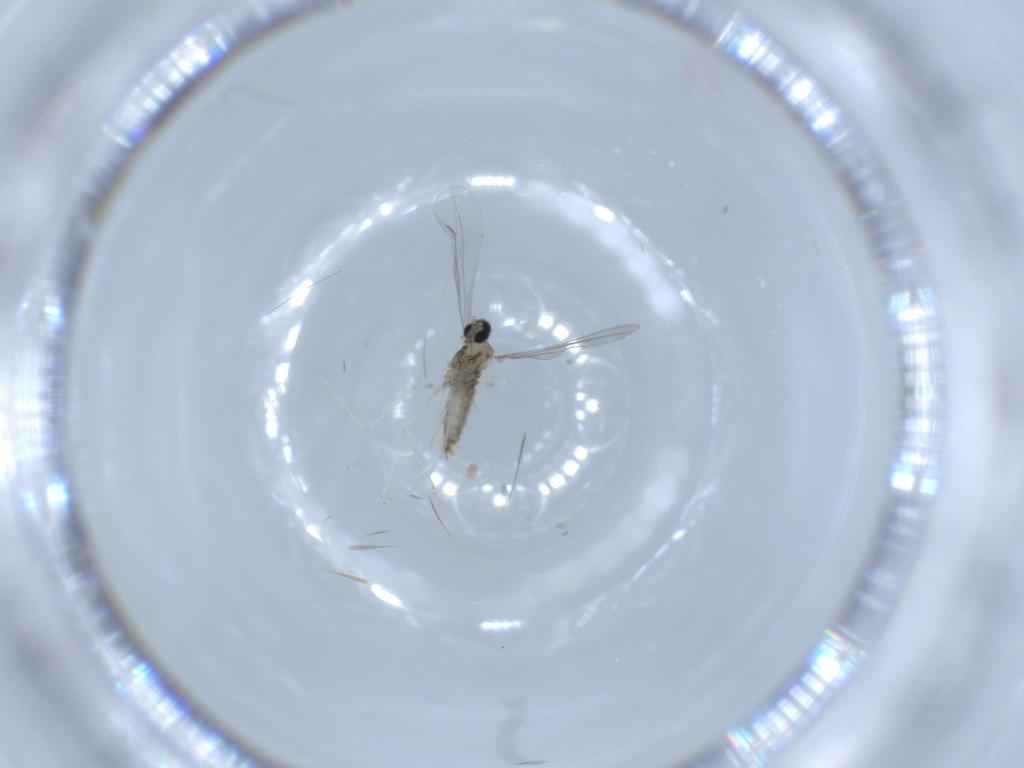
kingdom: Animalia
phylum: Arthropoda
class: Insecta
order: Diptera
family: Cecidomyiidae
